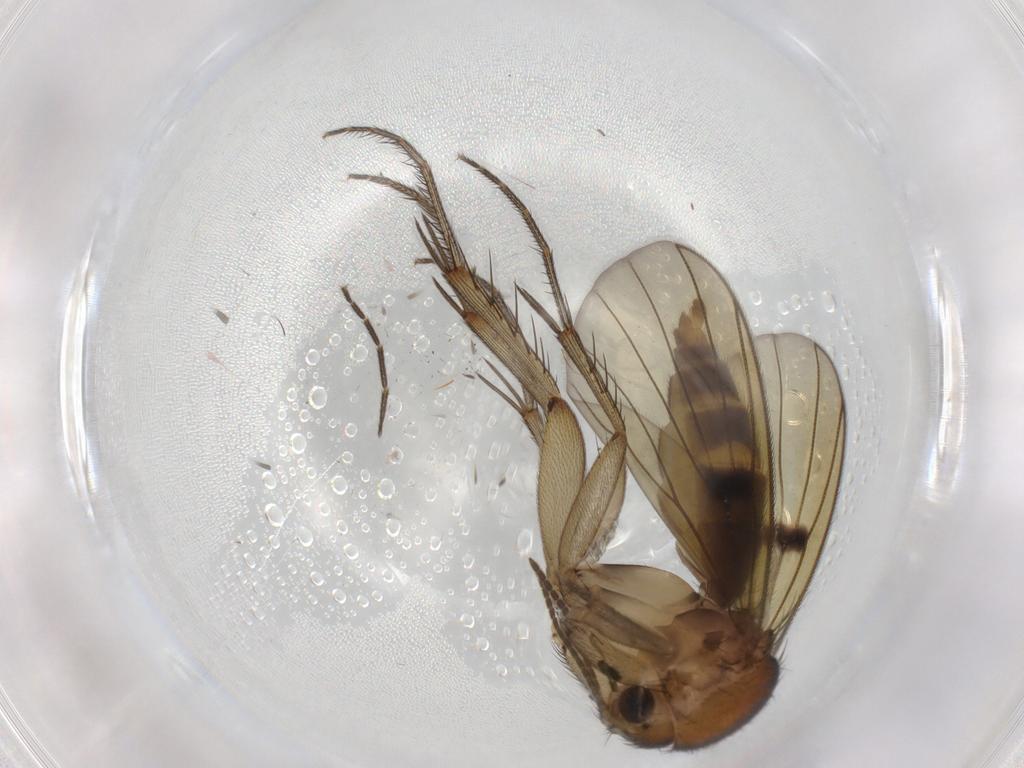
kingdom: Animalia
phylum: Arthropoda
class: Insecta
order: Diptera
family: Mycetophilidae
